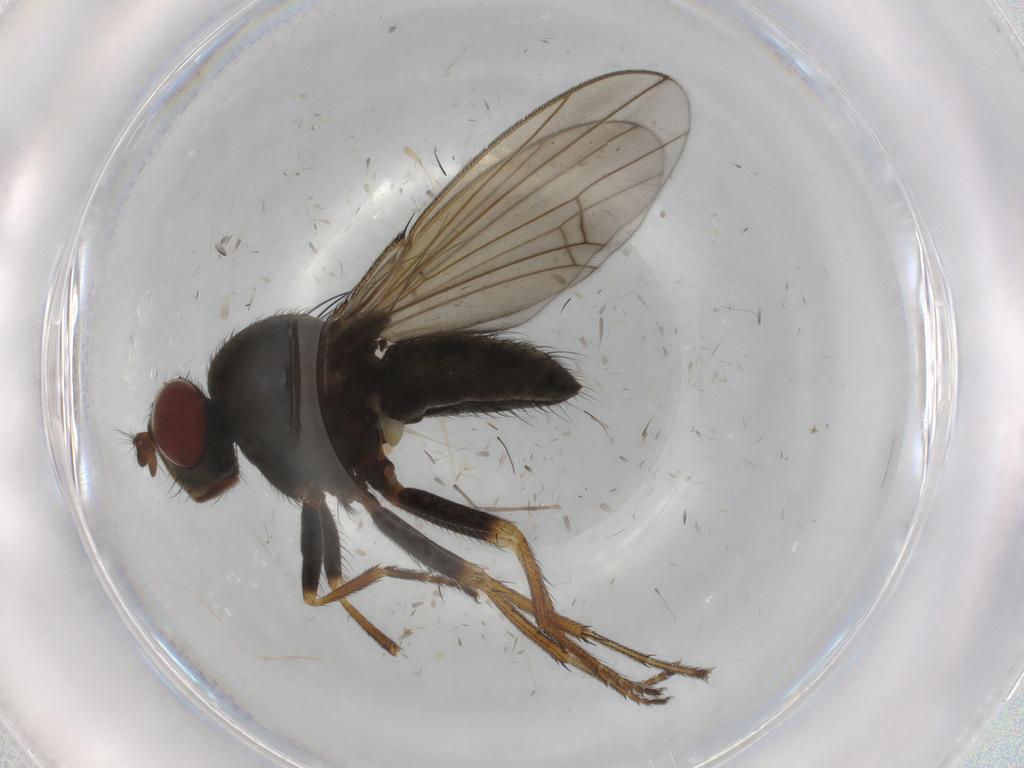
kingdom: Animalia
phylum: Arthropoda
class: Insecta
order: Diptera
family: Ephydridae
